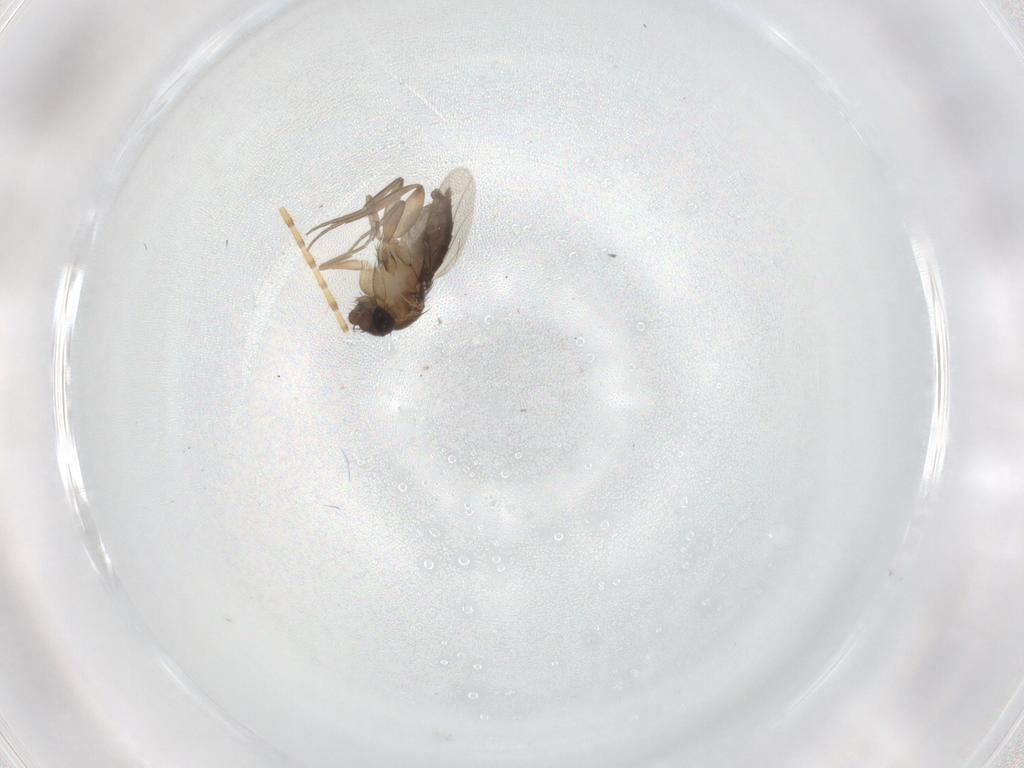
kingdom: Animalia
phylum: Arthropoda
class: Insecta
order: Diptera
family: Phoridae
